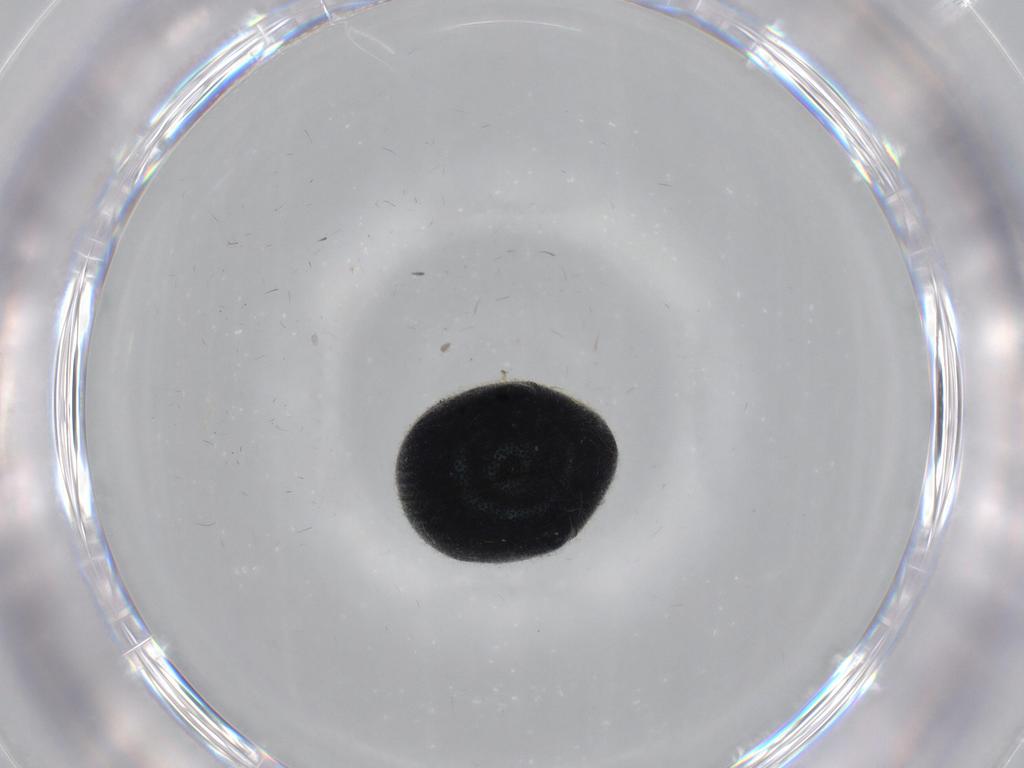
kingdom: Animalia
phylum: Arthropoda
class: Insecta
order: Coleoptera
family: Ptinidae
